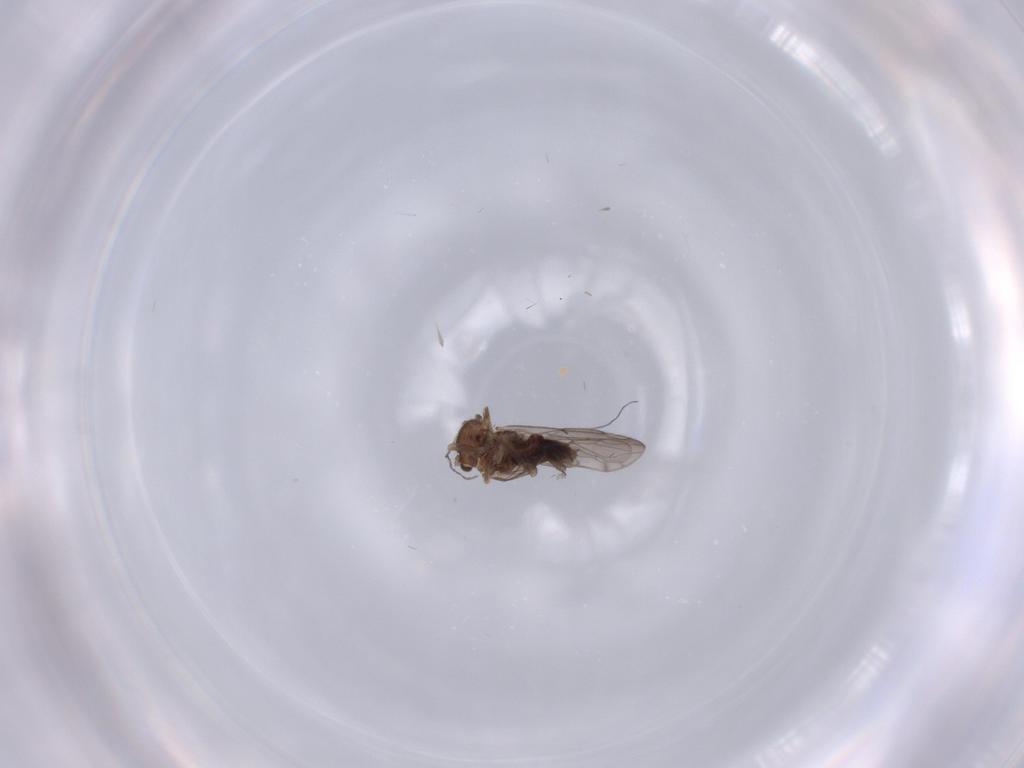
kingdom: Animalia
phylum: Arthropoda
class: Insecta
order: Psocodea
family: Ectopsocidae
